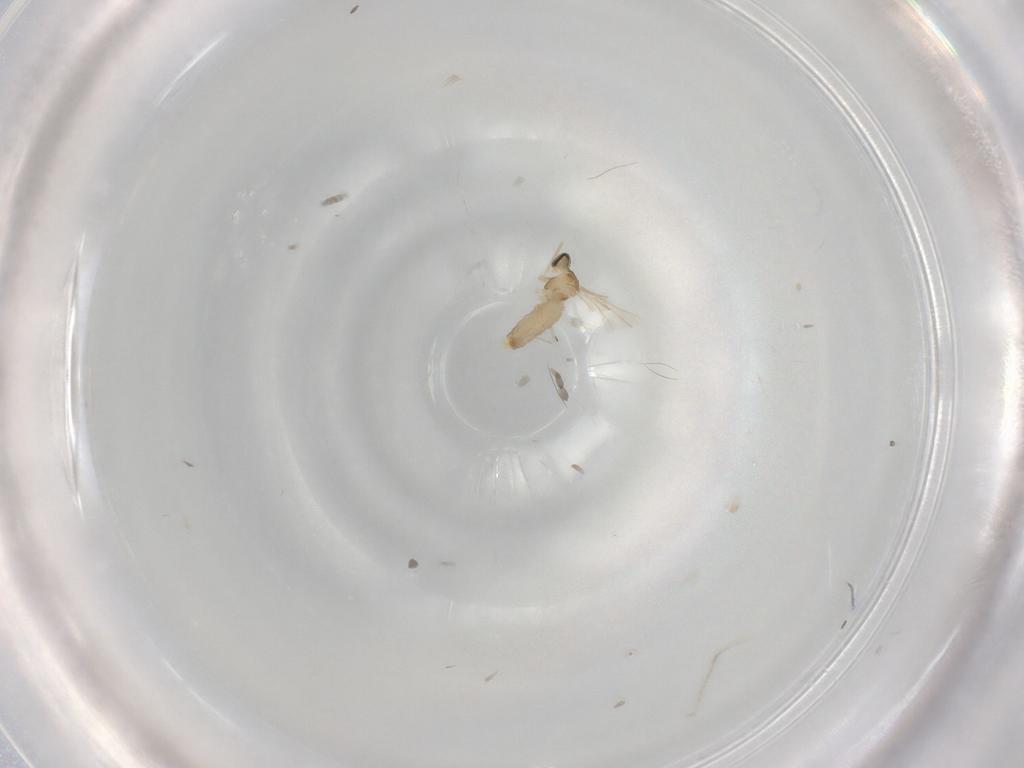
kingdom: Animalia
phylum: Arthropoda
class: Insecta
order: Diptera
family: Cecidomyiidae
